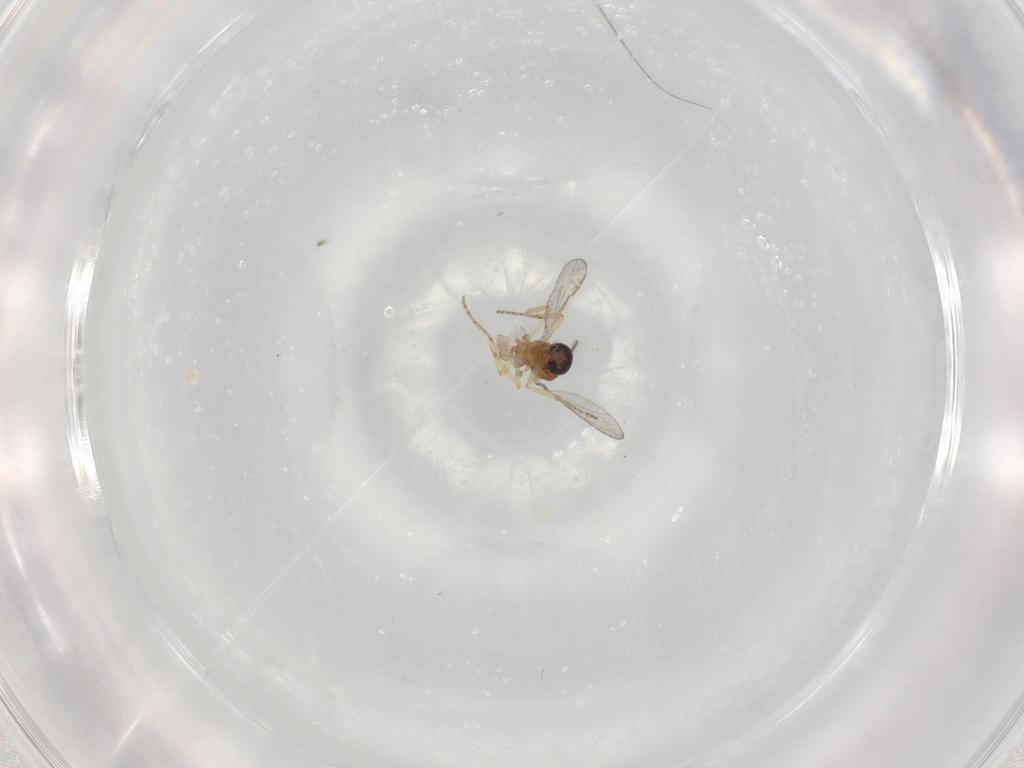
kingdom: Animalia
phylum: Arthropoda
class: Insecta
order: Diptera
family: Ceratopogonidae
